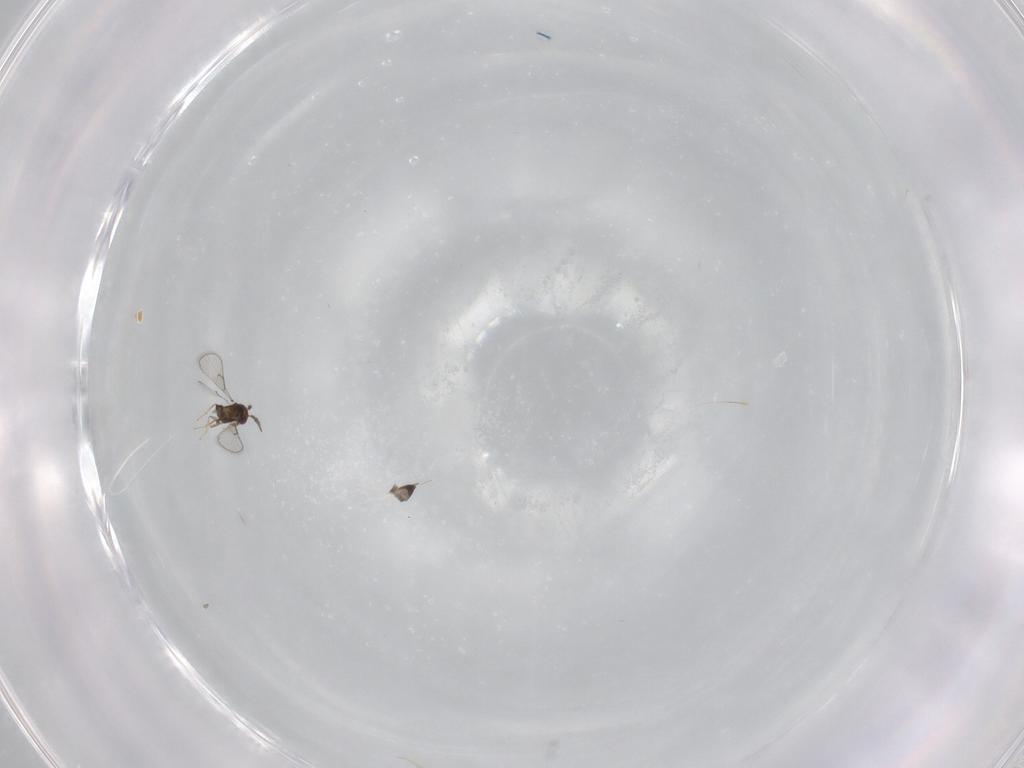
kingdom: Animalia
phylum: Arthropoda
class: Insecta
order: Hymenoptera
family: Trichogrammatidae
